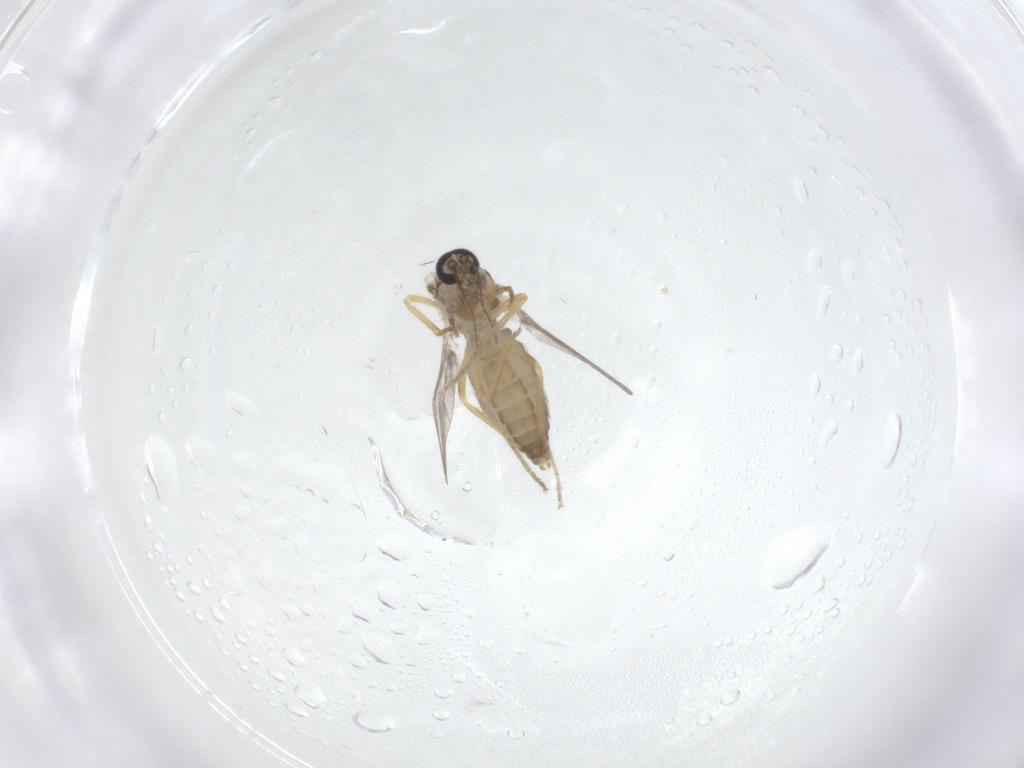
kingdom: Animalia
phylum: Arthropoda
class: Insecta
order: Diptera
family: Ceratopogonidae
